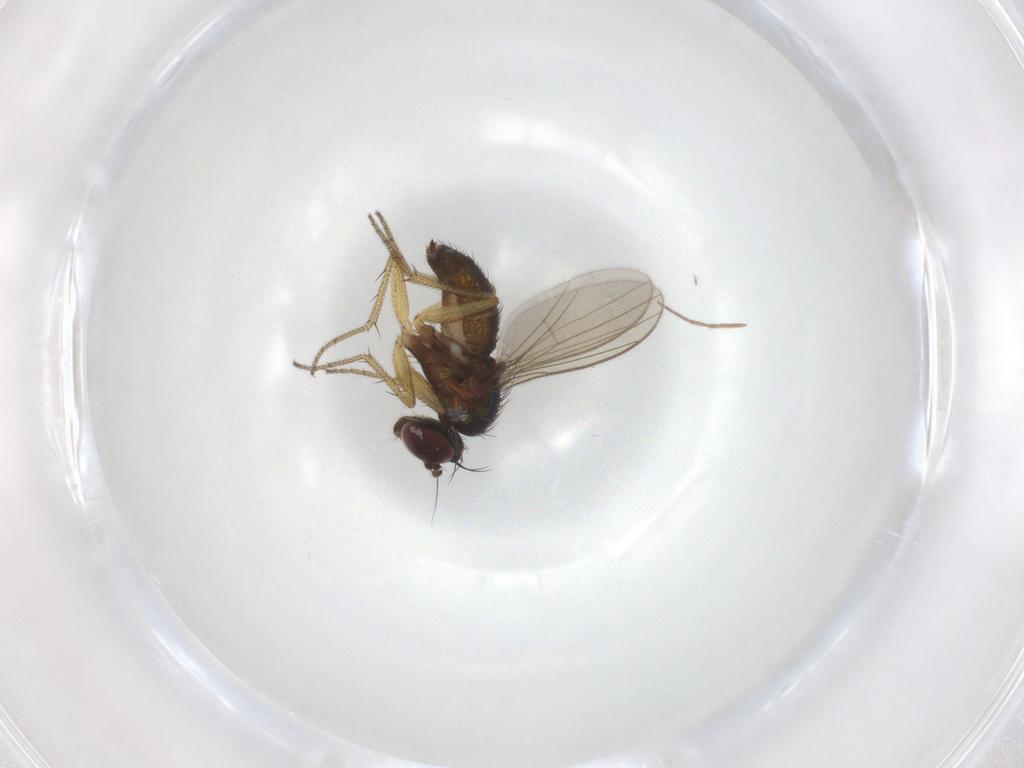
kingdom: Animalia
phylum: Arthropoda
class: Insecta
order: Diptera
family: Dolichopodidae
